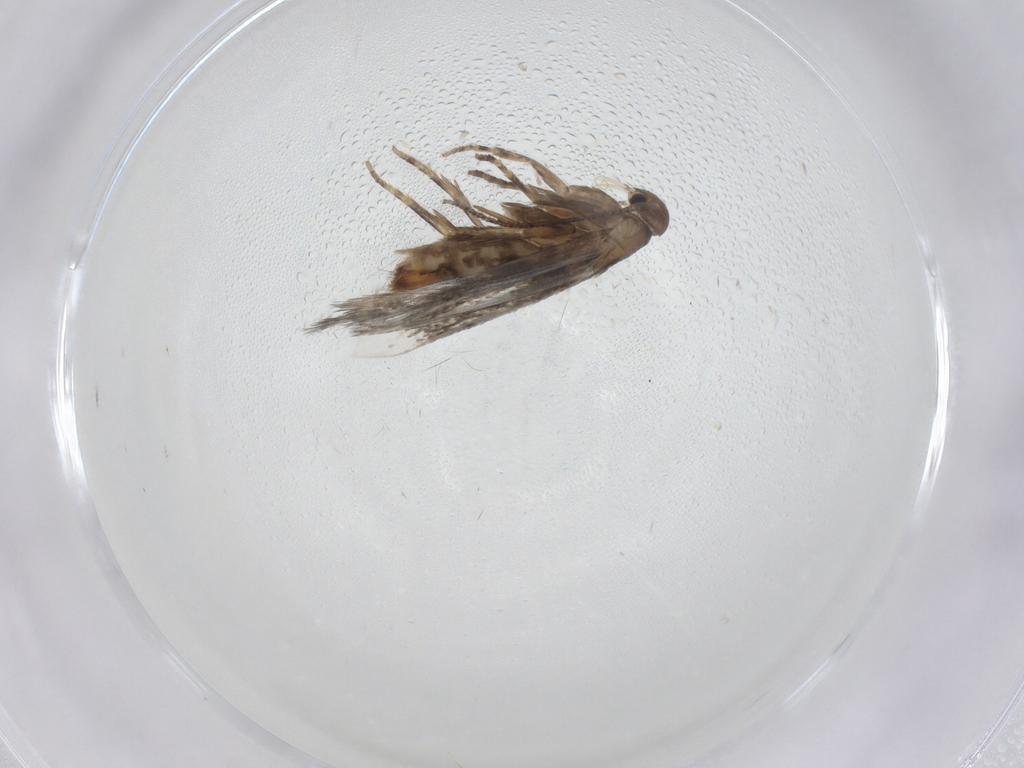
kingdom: Animalia
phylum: Arthropoda
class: Insecta
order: Lepidoptera
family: Elachistidae
